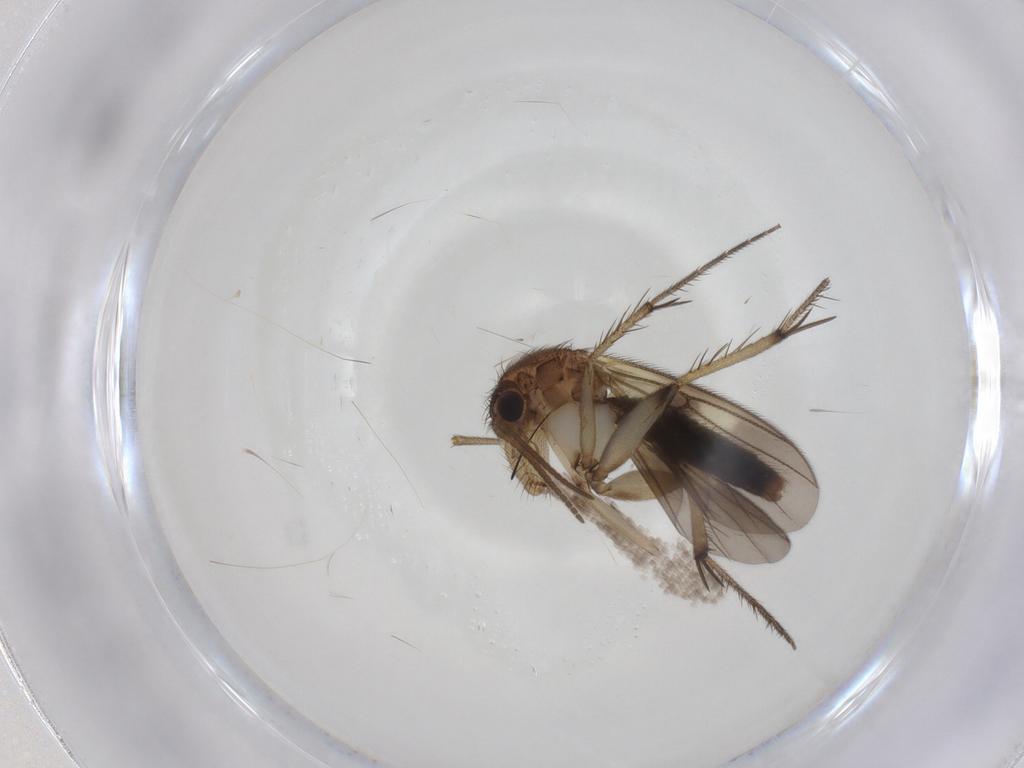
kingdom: Animalia
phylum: Arthropoda
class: Insecta
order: Diptera
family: Mycetophilidae
